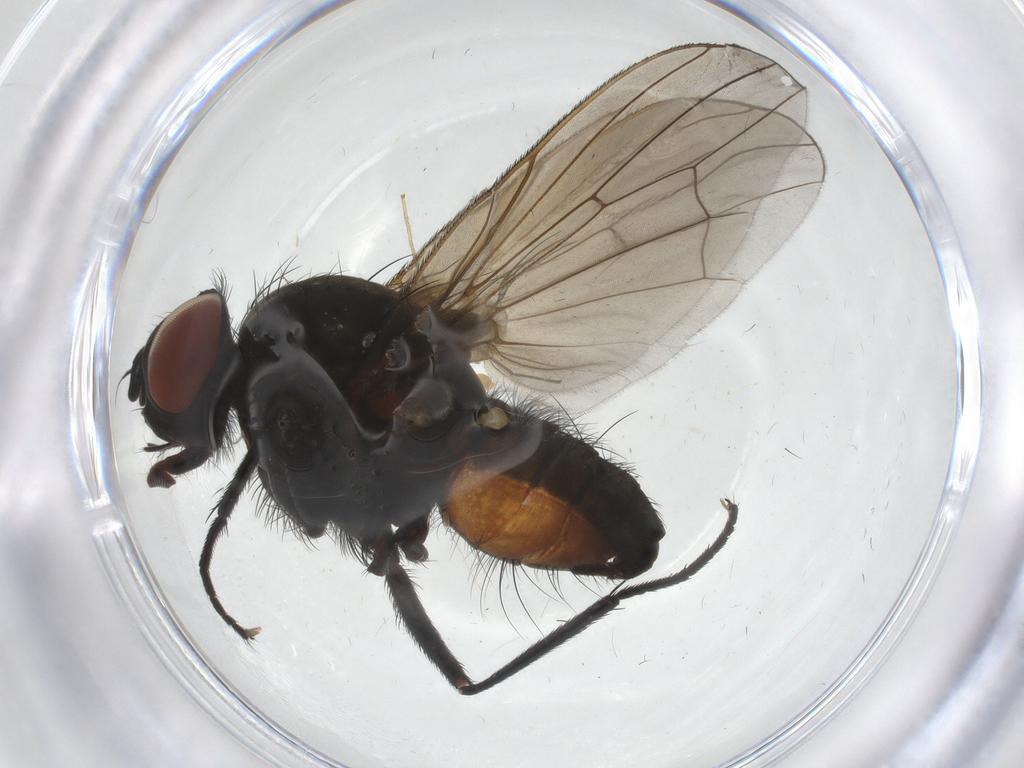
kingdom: Animalia
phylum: Arthropoda
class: Insecta
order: Diptera
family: Anthomyiidae
